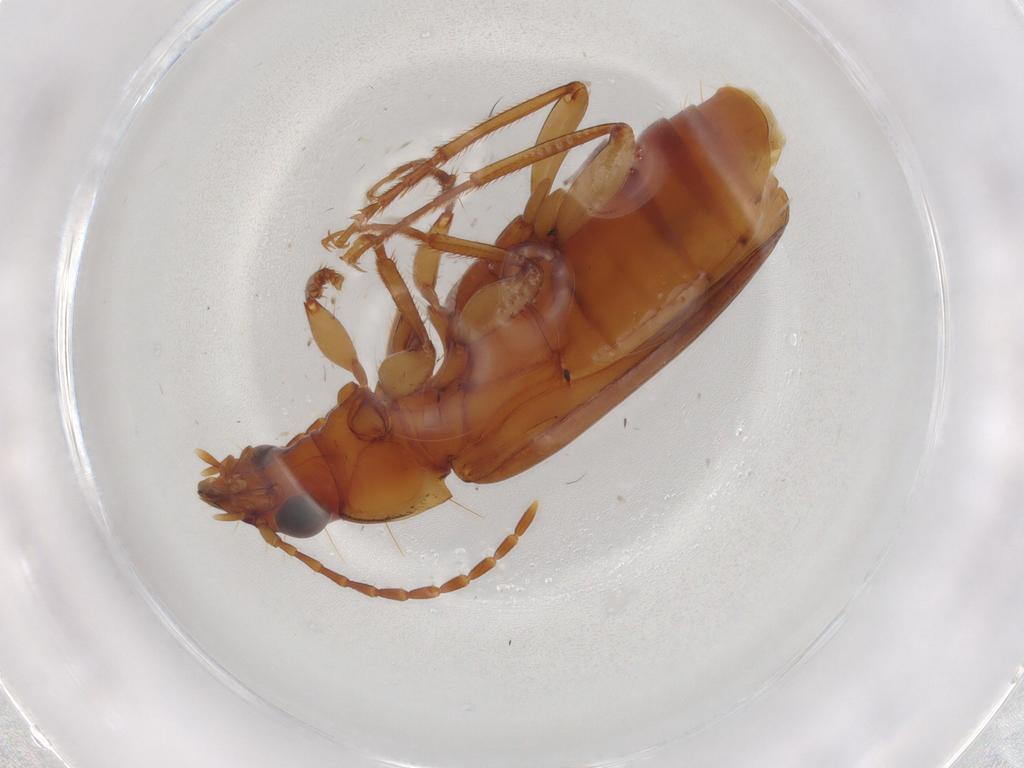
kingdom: Animalia
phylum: Arthropoda
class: Insecta
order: Coleoptera
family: Carabidae
